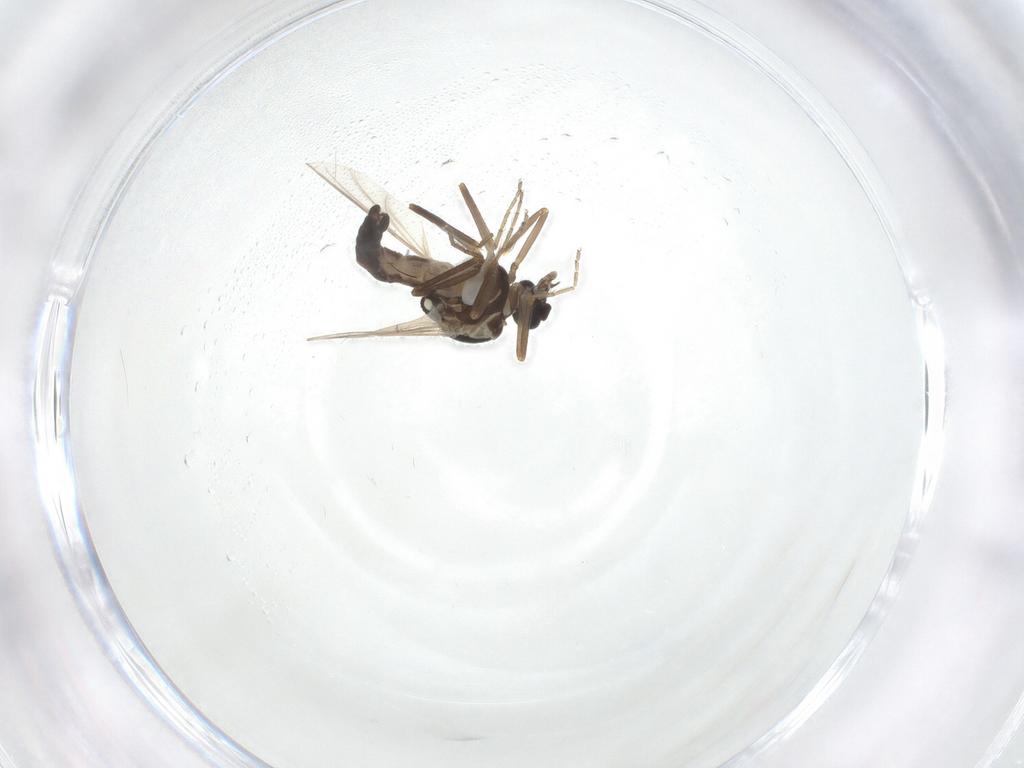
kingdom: Animalia
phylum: Arthropoda
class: Insecta
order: Diptera
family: Ceratopogonidae
